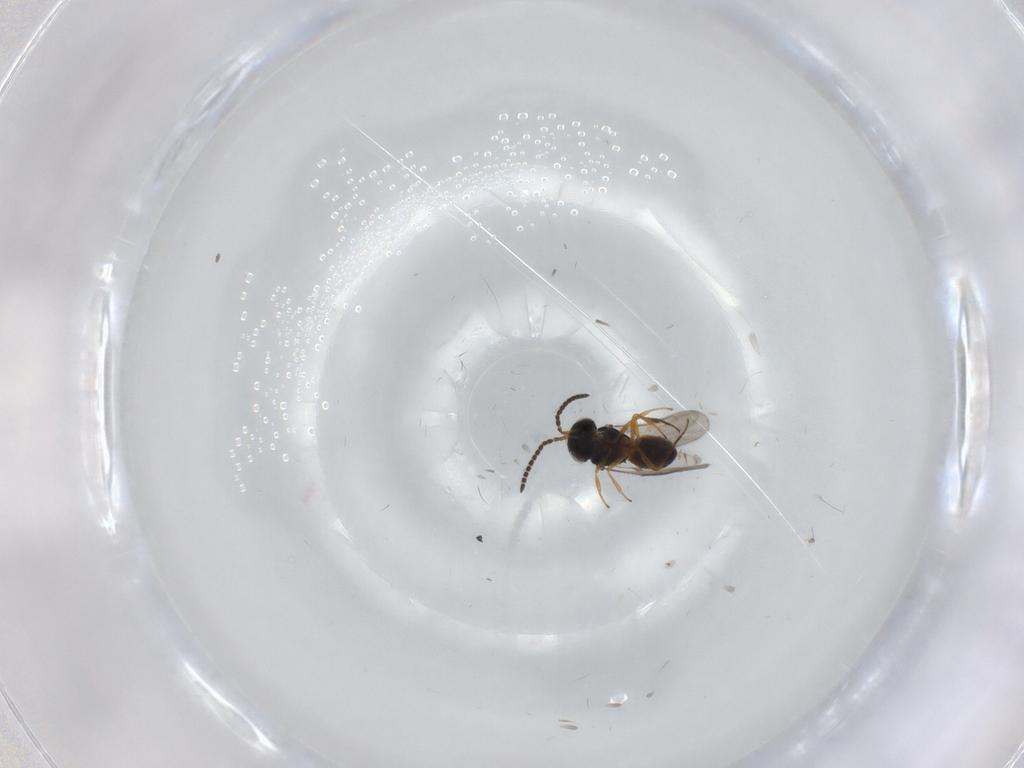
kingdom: Animalia
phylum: Arthropoda
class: Insecta
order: Hymenoptera
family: Scelionidae
